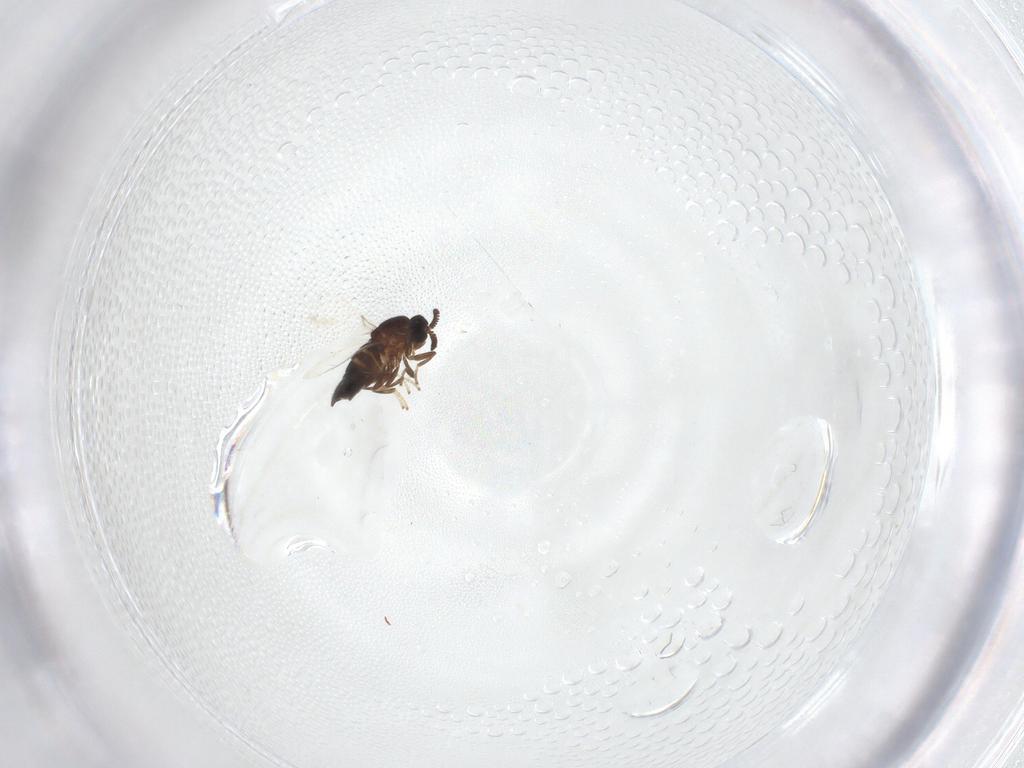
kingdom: Animalia
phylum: Arthropoda
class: Insecta
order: Diptera
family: Scatopsidae
